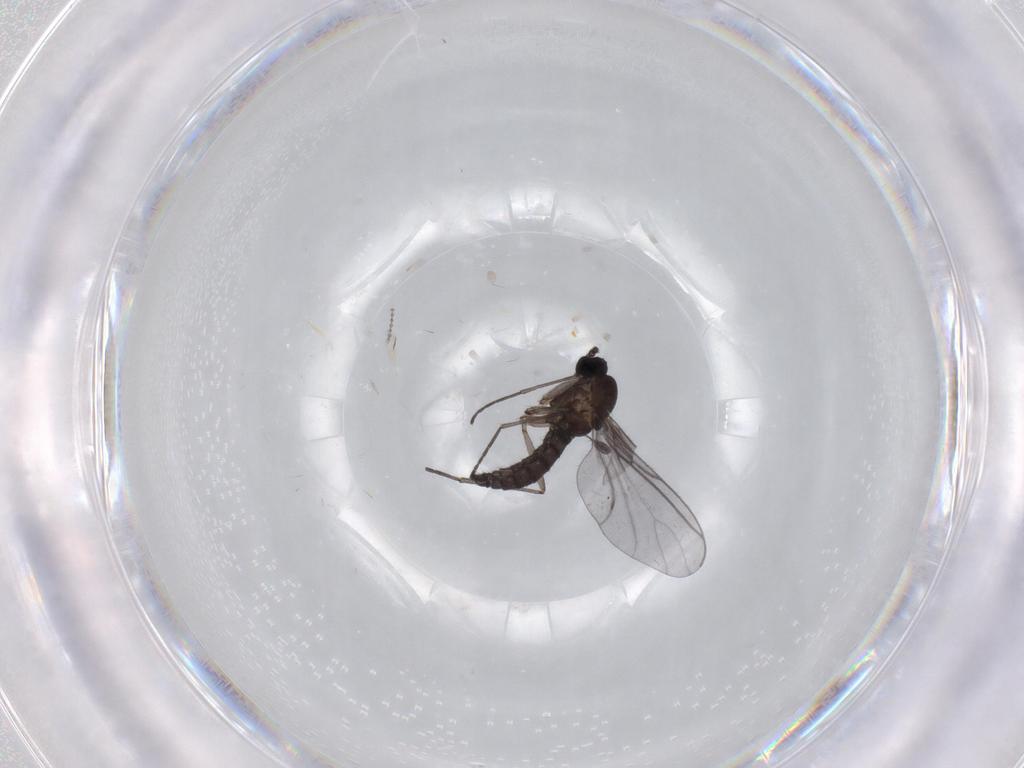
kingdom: Animalia
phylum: Arthropoda
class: Insecta
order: Diptera
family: Sciaridae
